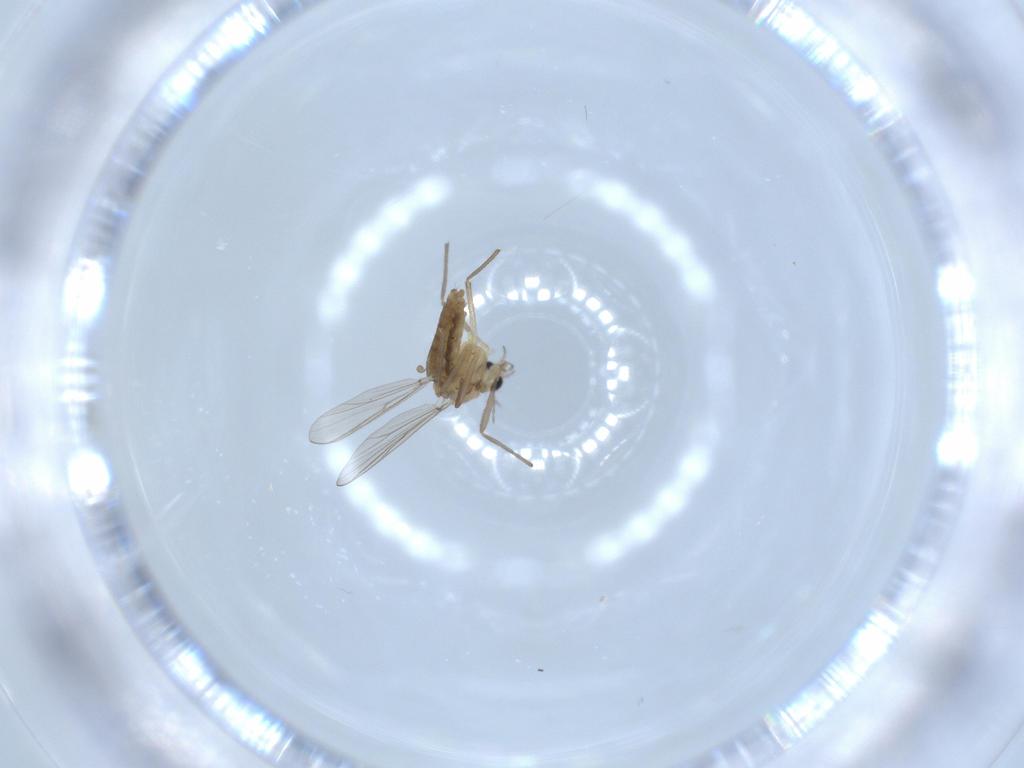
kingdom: Animalia
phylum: Arthropoda
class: Insecta
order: Diptera
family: Chironomidae
